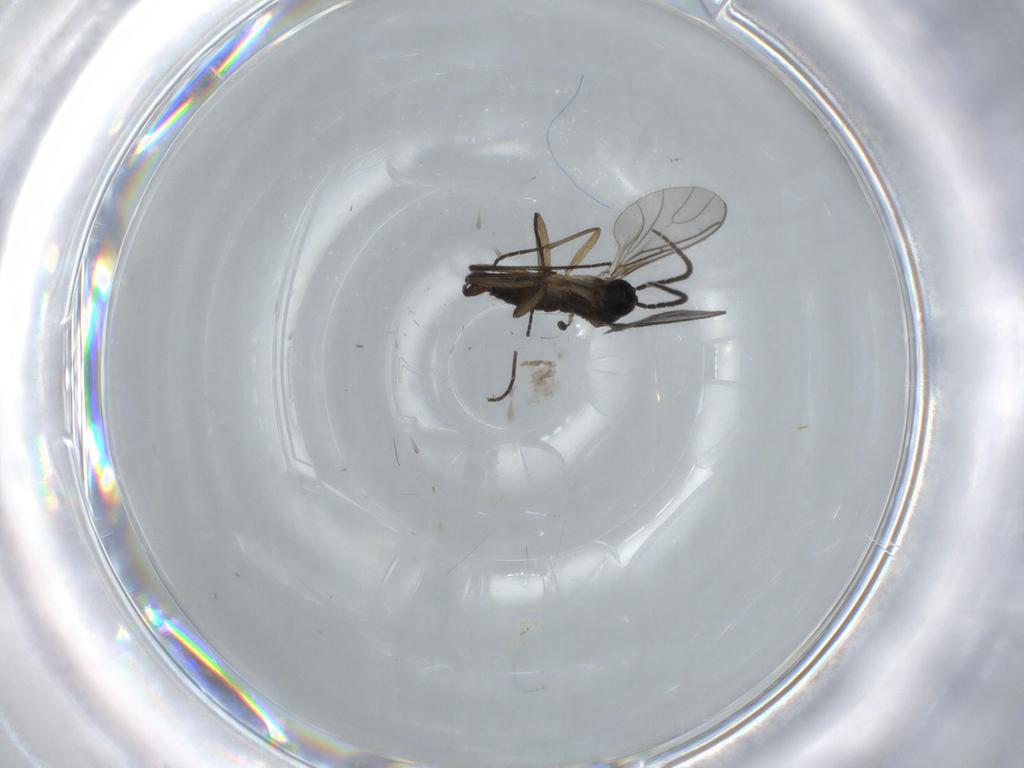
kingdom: Animalia
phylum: Arthropoda
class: Insecta
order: Diptera
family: Sciaridae
